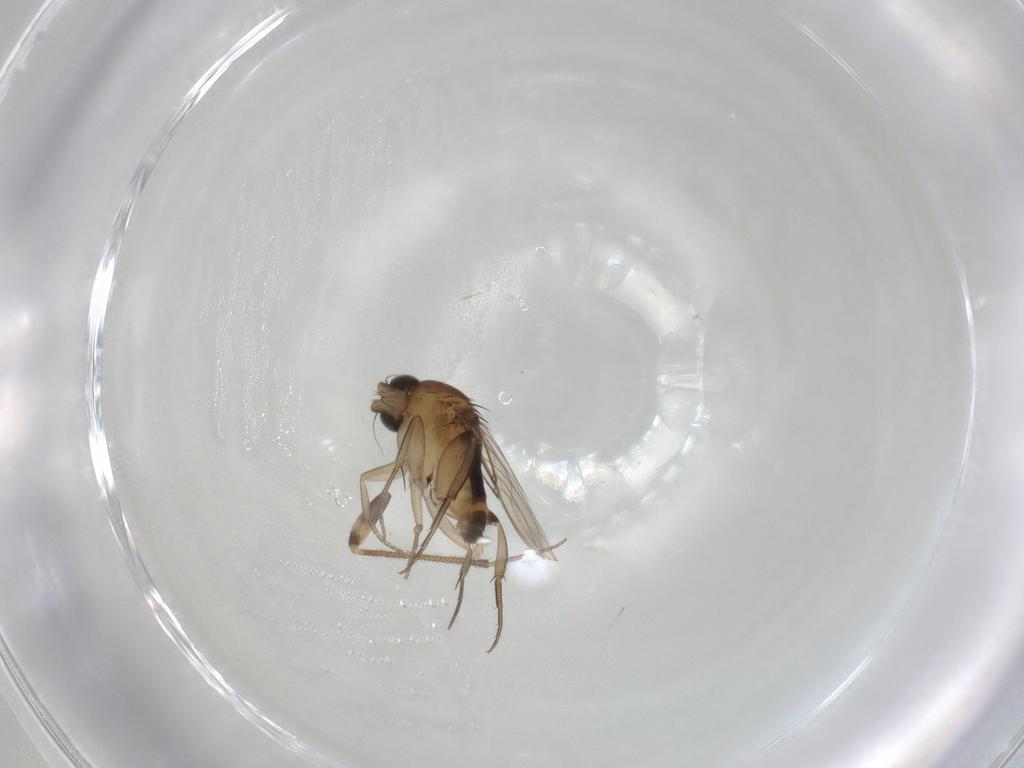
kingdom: Animalia
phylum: Arthropoda
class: Insecta
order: Diptera
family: Phoridae
